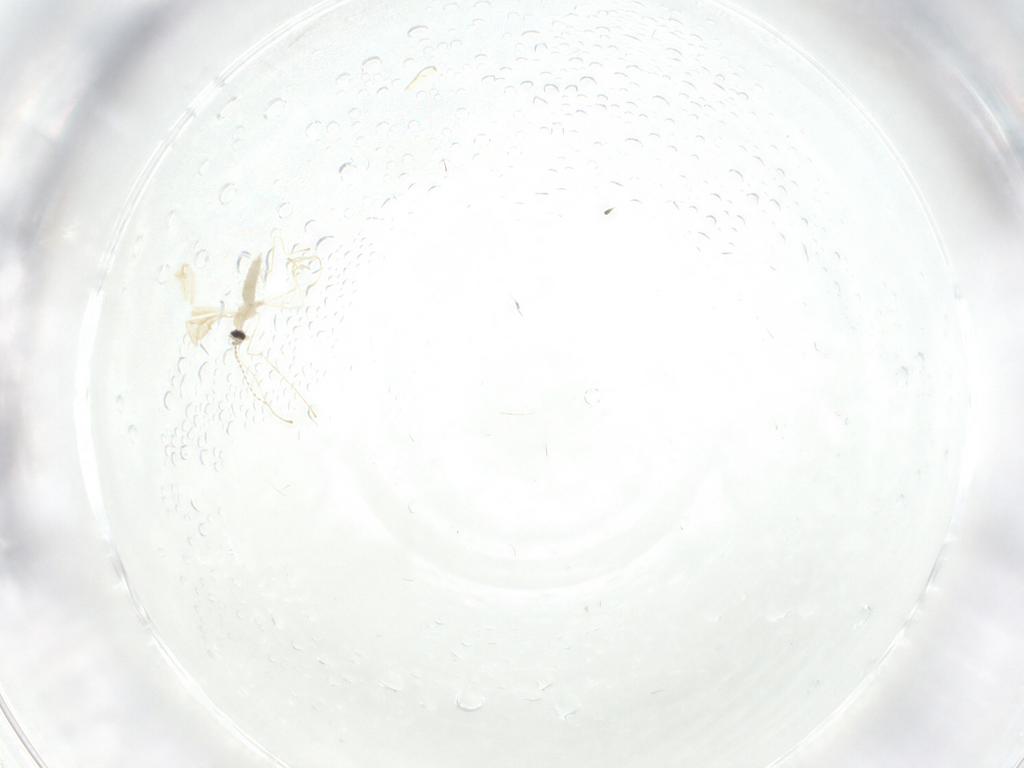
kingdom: Animalia
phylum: Arthropoda
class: Insecta
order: Diptera
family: Cecidomyiidae
